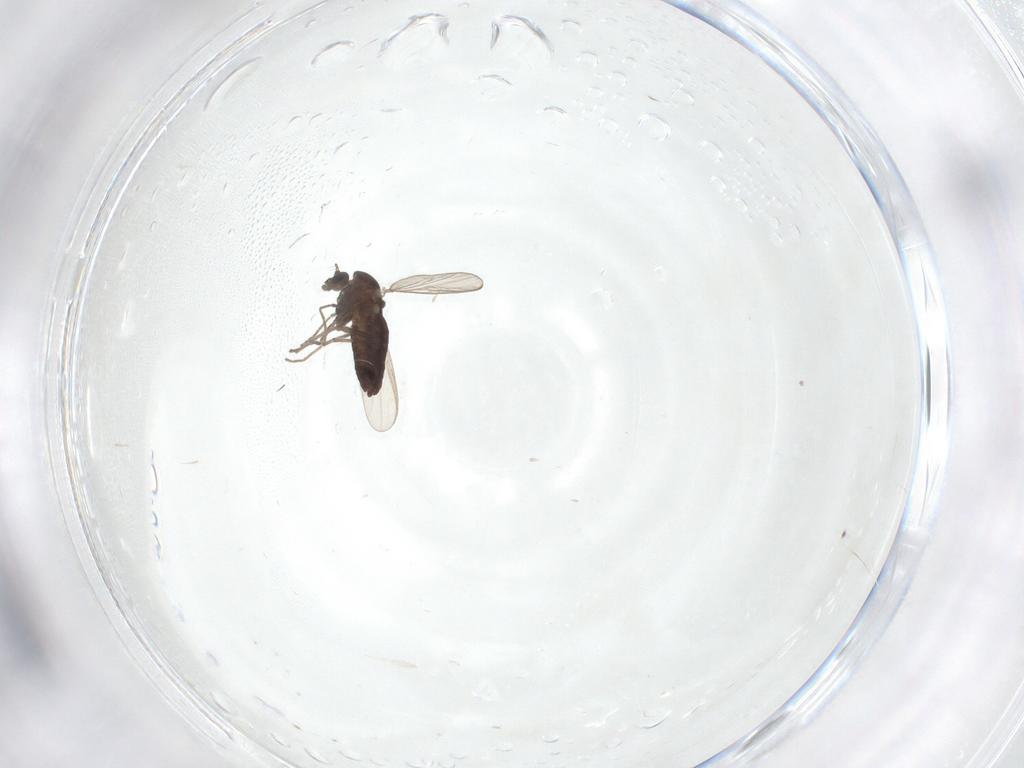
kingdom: Animalia
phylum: Arthropoda
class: Insecta
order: Diptera
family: Chironomidae
